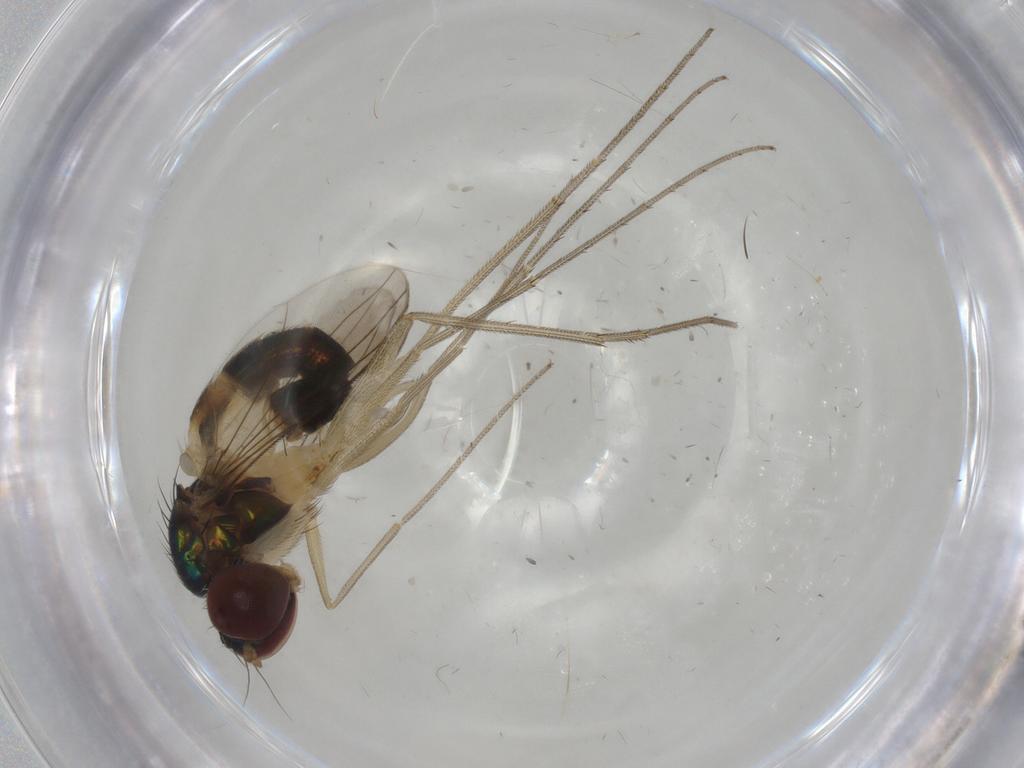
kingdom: Animalia
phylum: Arthropoda
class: Insecta
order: Diptera
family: Dolichopodidae
